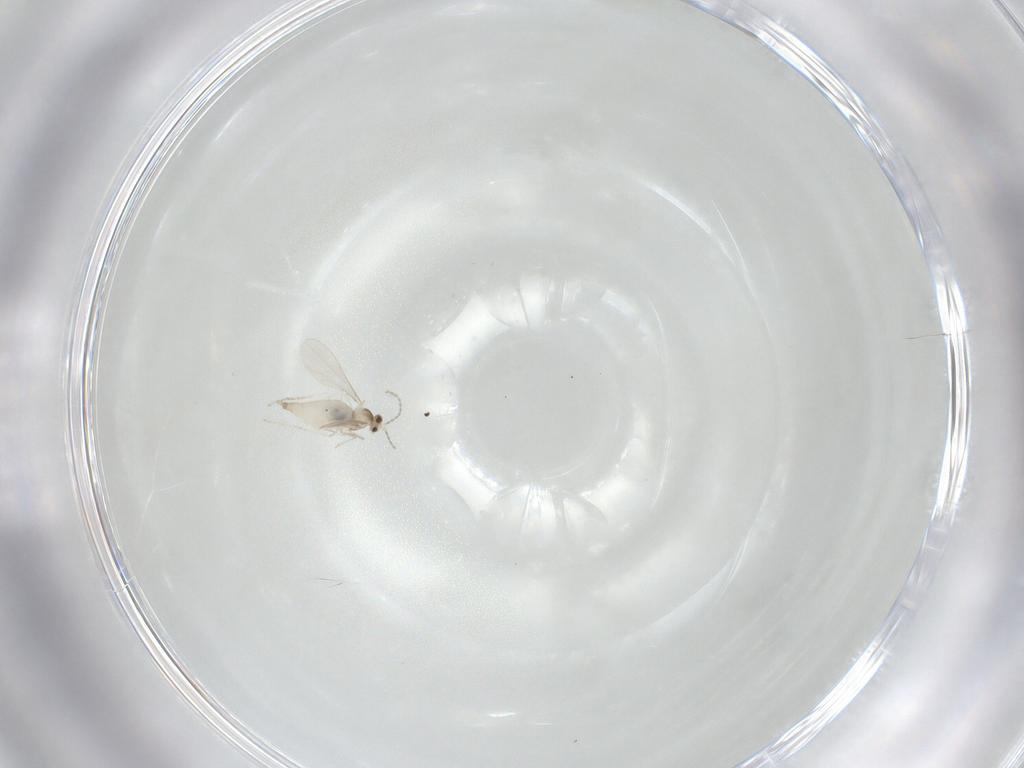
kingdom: Animalia
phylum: Arthropoda
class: Insecta
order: Diptera
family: Cecidomyiidae
